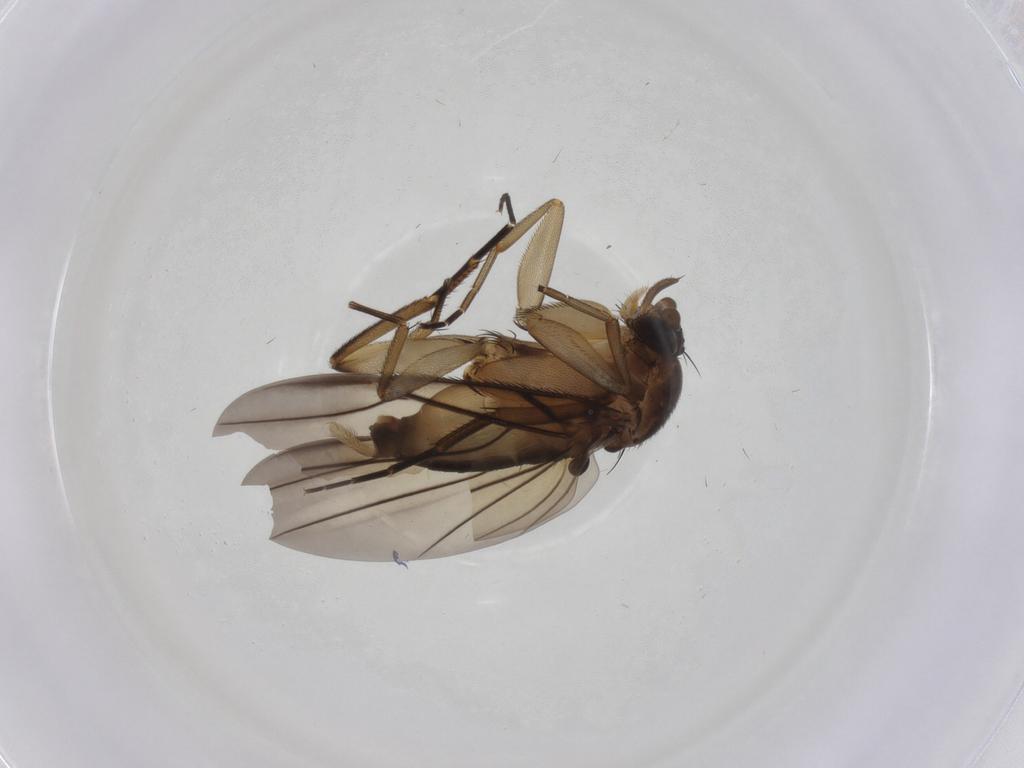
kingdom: Animalia
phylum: Arthropoda
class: Insecta
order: Diptera
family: Phoridae
